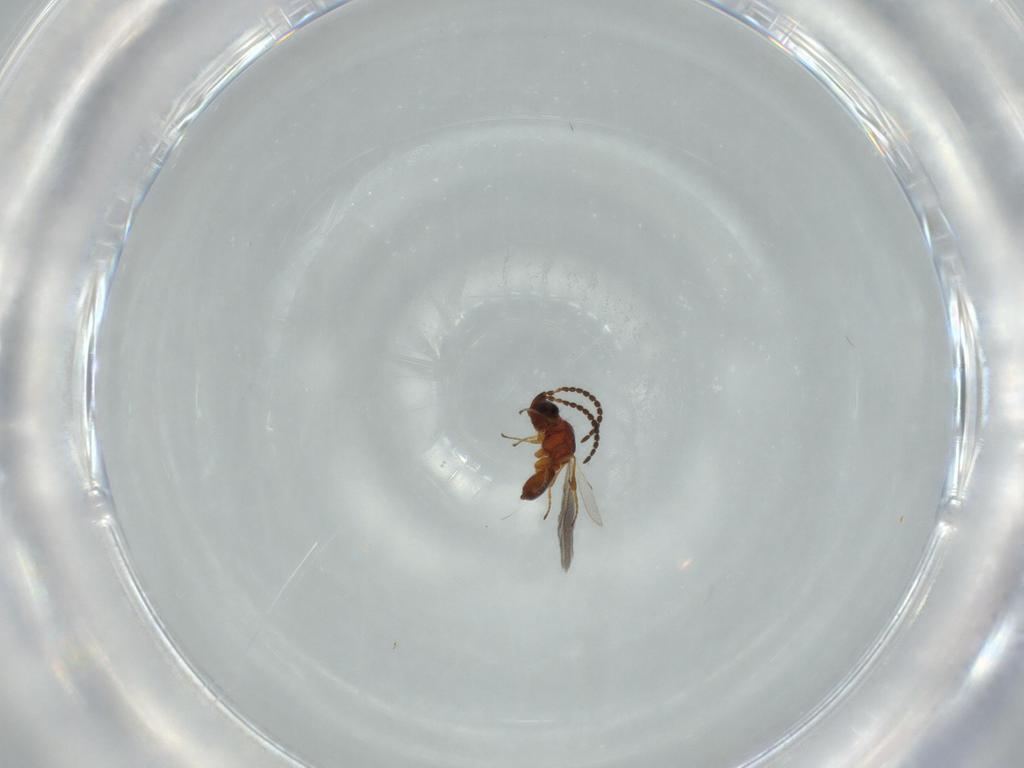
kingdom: Animalia
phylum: Arthropoda
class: Insecta
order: Hymenoptera
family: Diapriidae
